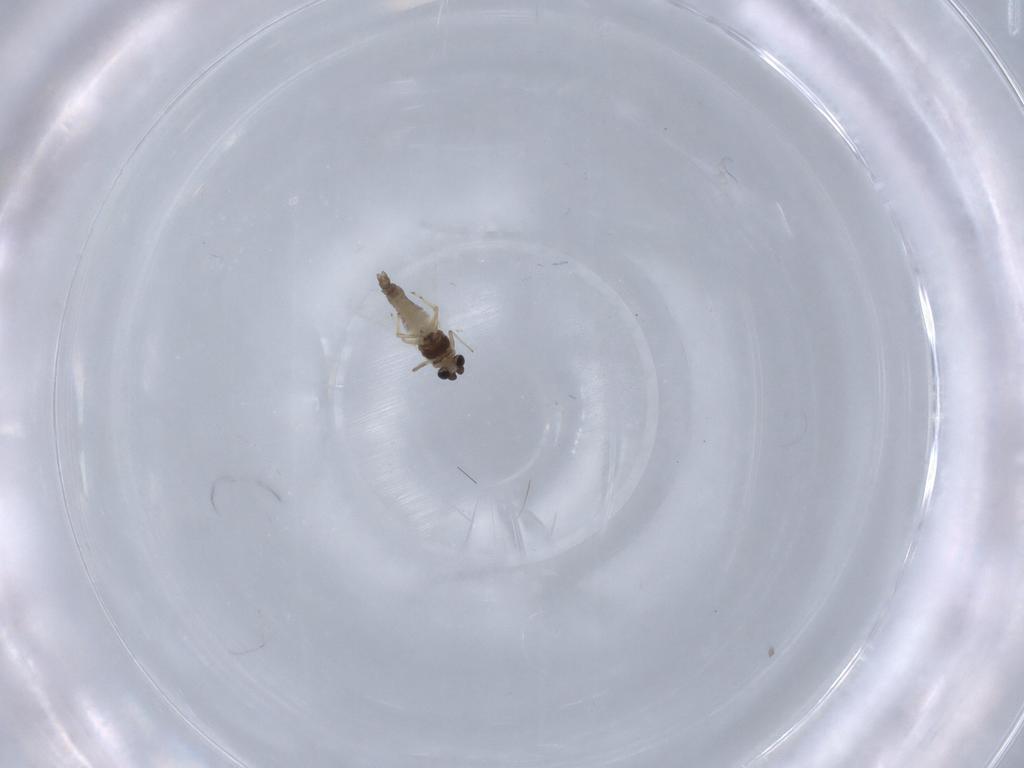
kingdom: Animalia
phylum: Arthropoda
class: Insecta
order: Diptera
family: Chironomidae
